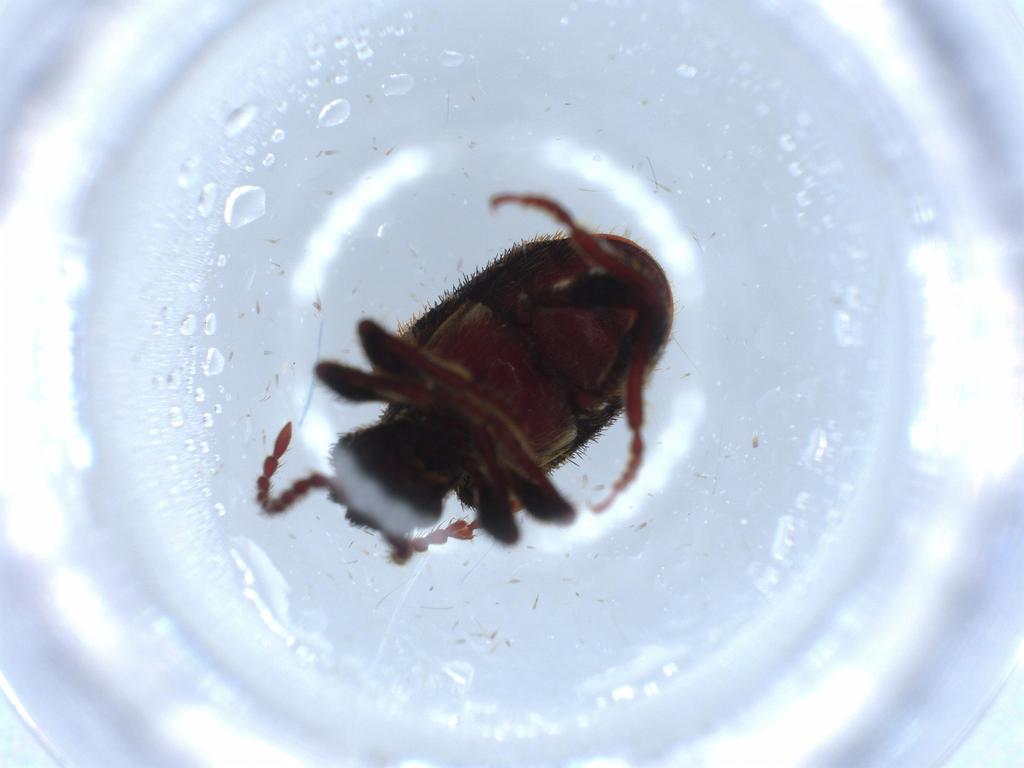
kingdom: Animalia
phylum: Arthropoda
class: Insecta
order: Coleoptera
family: Ptinidae
